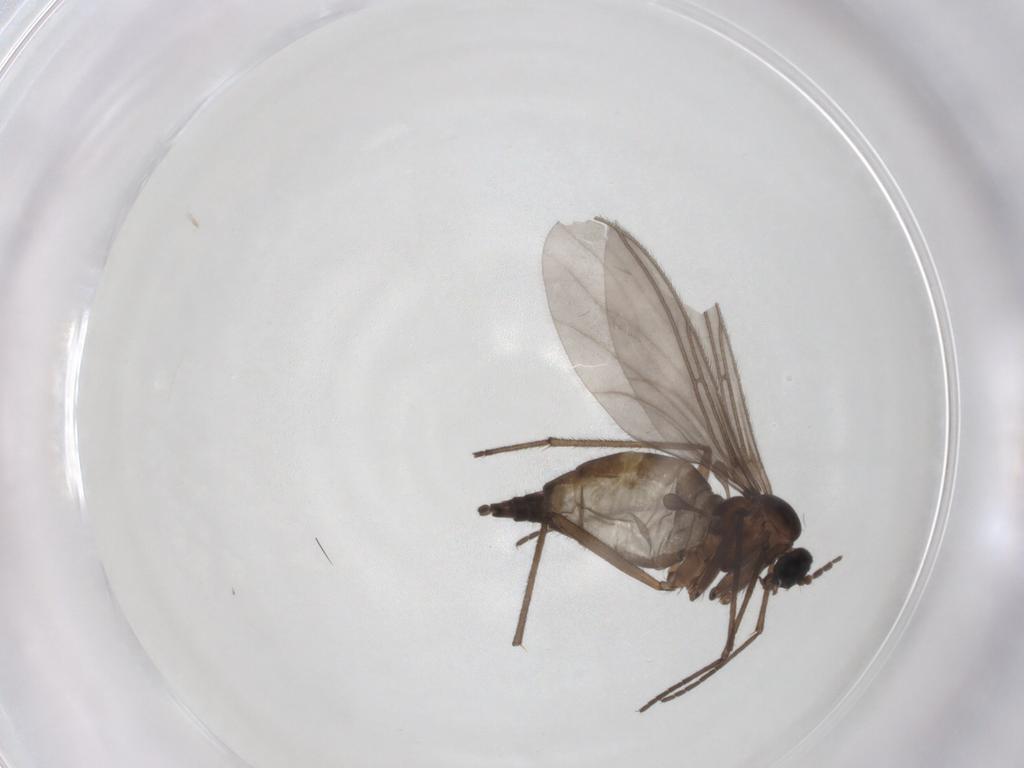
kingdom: Animalia
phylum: Arthropoda
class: Insecta
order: Diptera
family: Sciaridae
